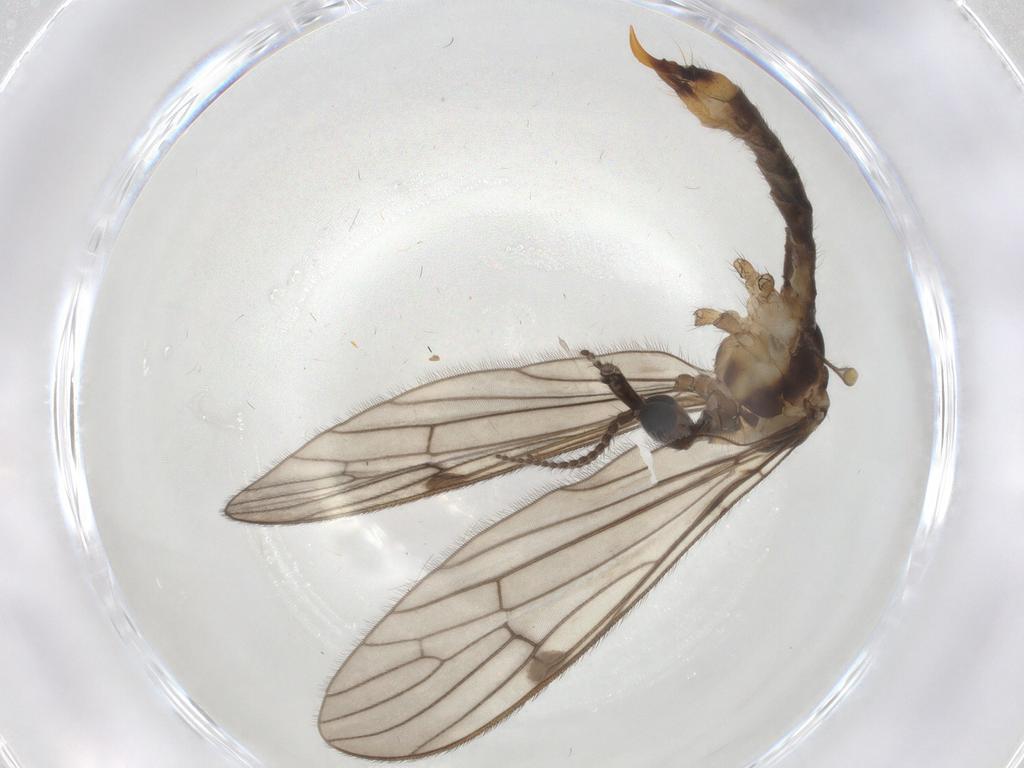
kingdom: Animalia
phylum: Arthropoda
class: Insecta
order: Diptera
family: Limoniidae
